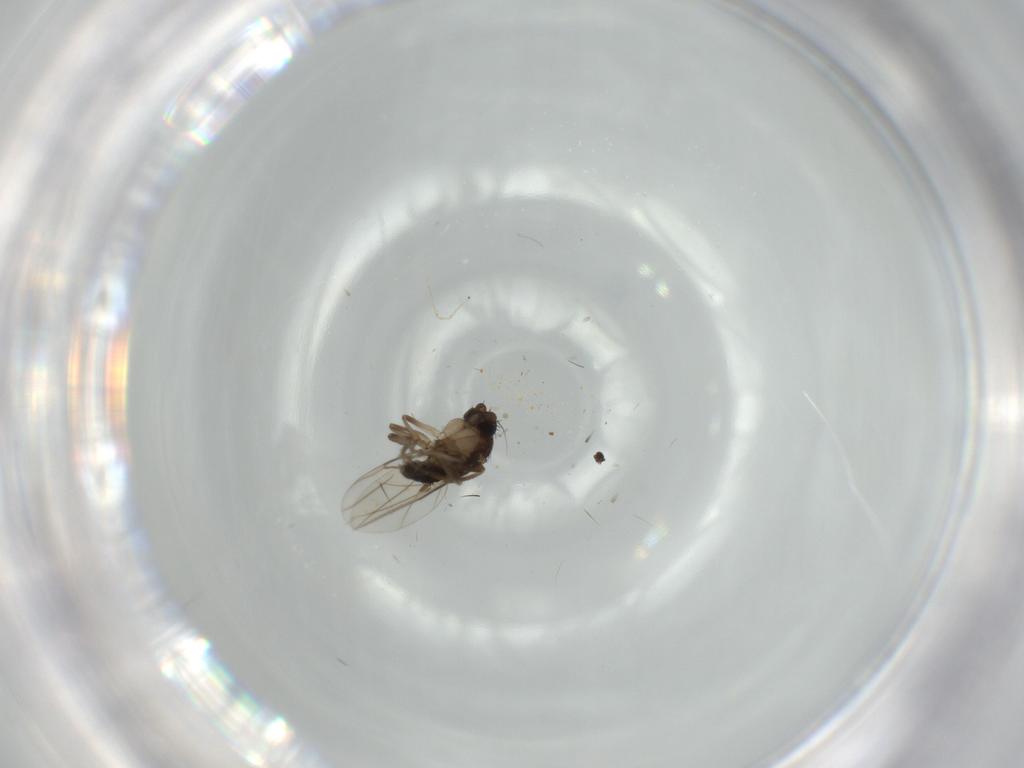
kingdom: Animalia
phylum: Arthropoda
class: Insecta
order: Diptera
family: Phoridae
